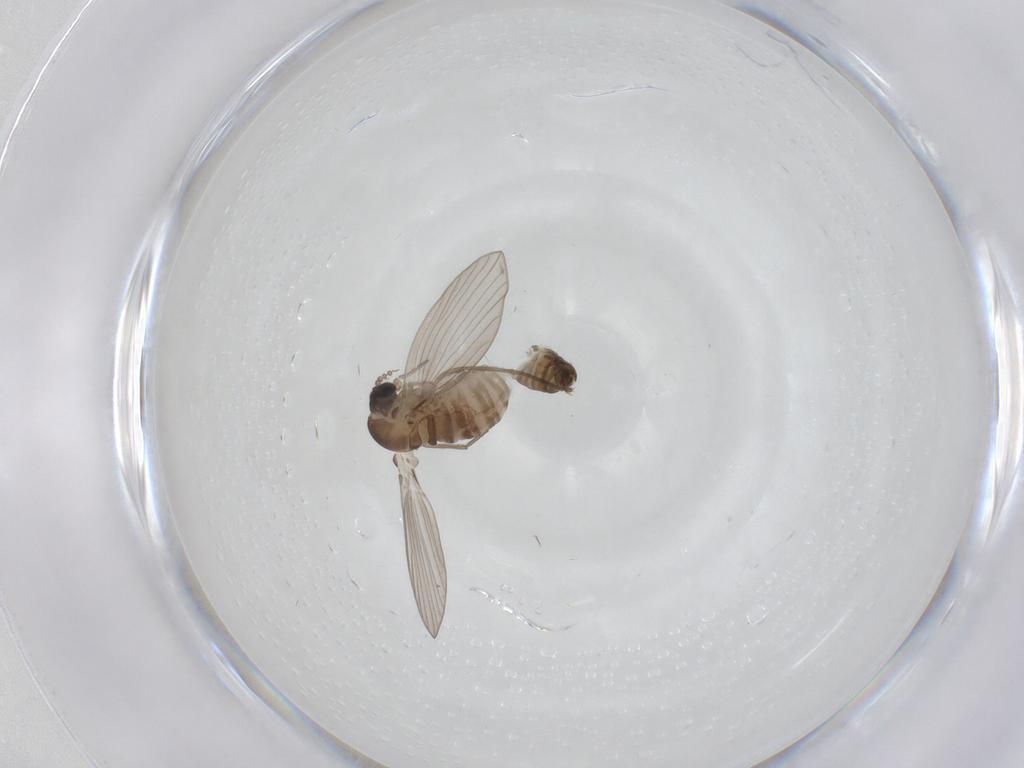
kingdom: Animalia
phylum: Arthropoda
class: Insecta
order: Diptera
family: Psychodidae
